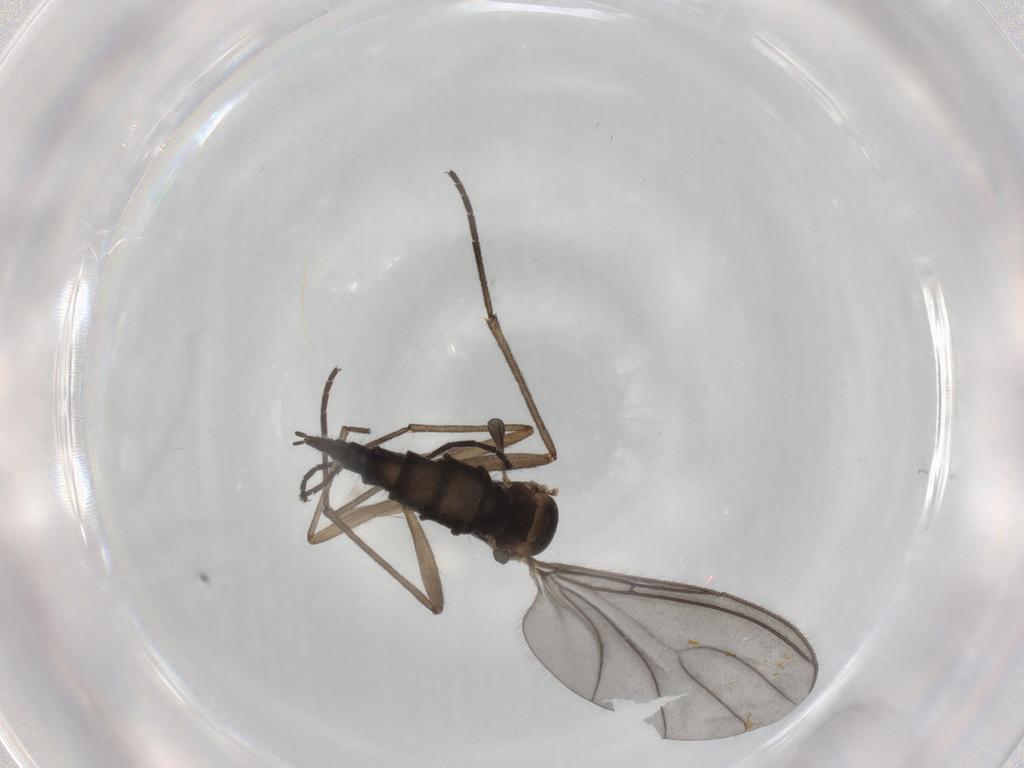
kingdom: Animalia
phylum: Arthropoda
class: Insecta
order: Diptera
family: Sciaridae
